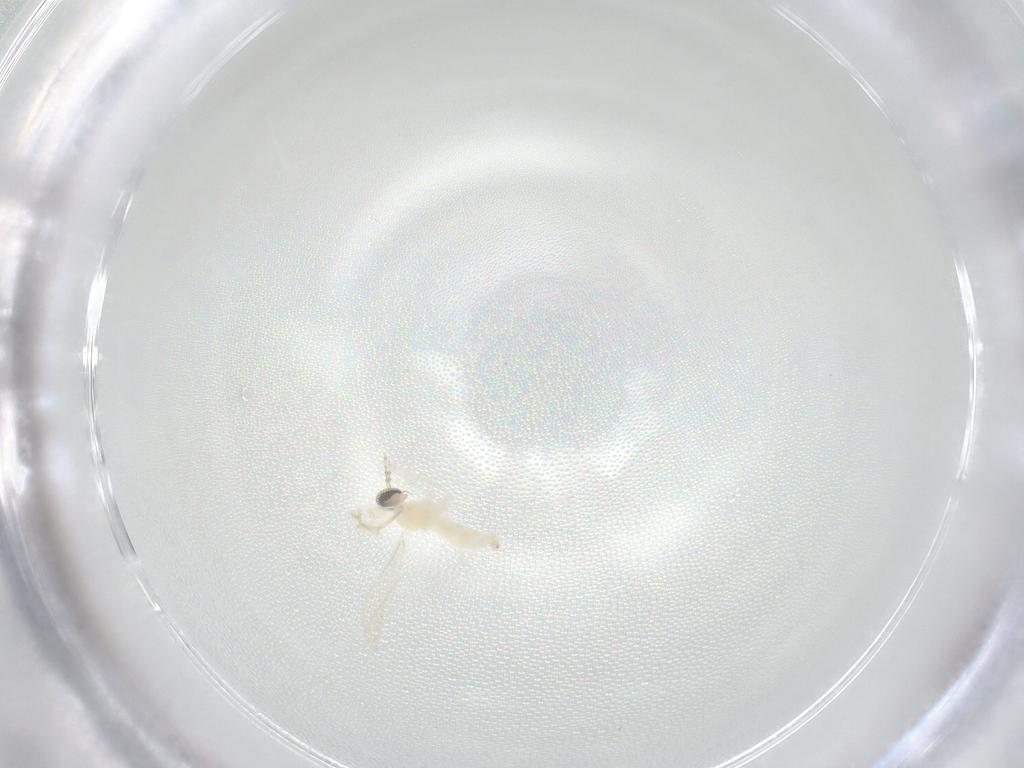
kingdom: Animalia
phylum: Arthropoda
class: Insecta
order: Diptera
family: Cecidomyiidae
